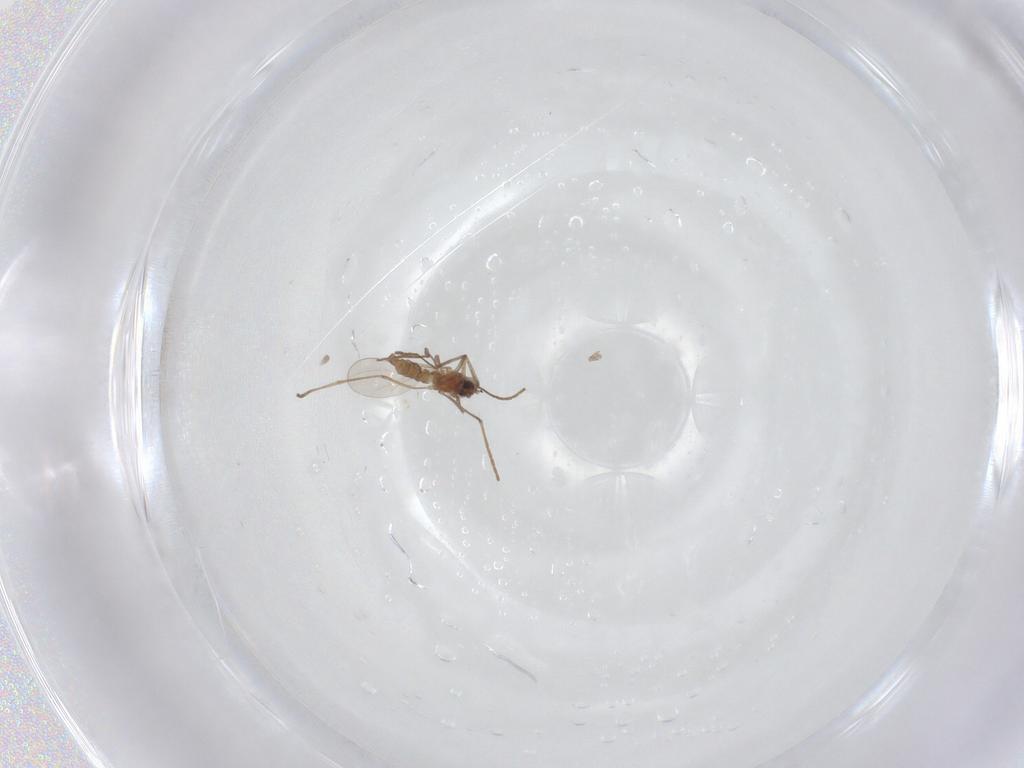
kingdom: Animalia
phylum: Arthropoda
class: Insecta
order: Diptera
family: Cecidomyiidae
